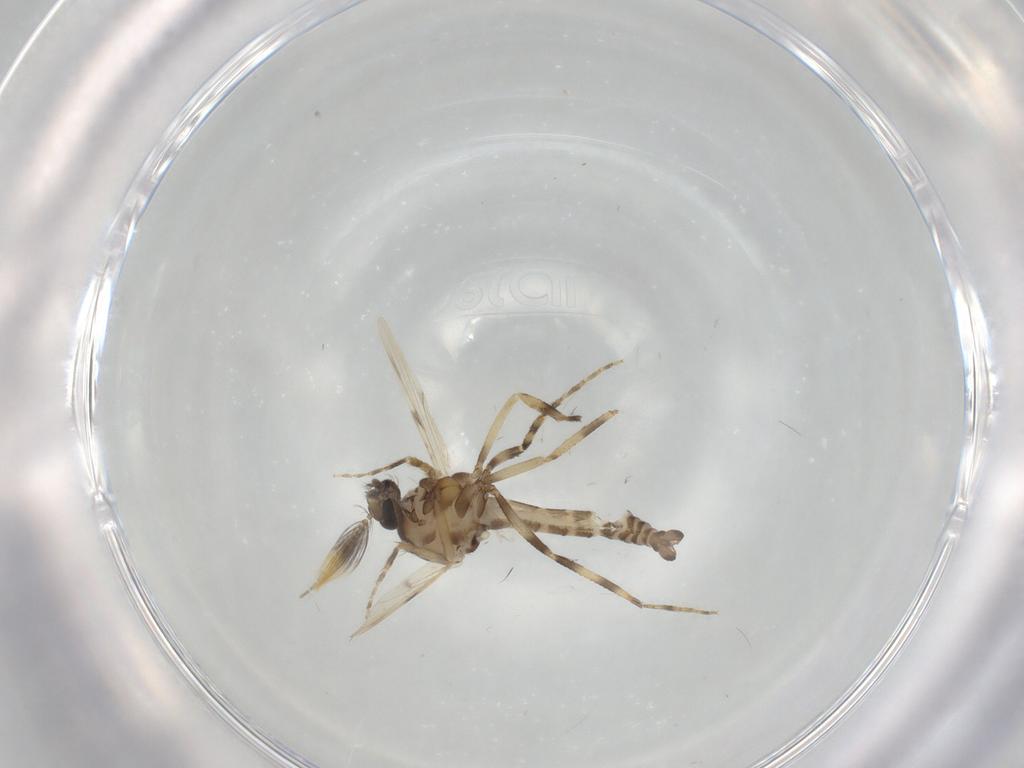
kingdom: Animalia
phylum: Arthropoda
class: Insecta
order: Diptera
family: Ceratopogonidae
